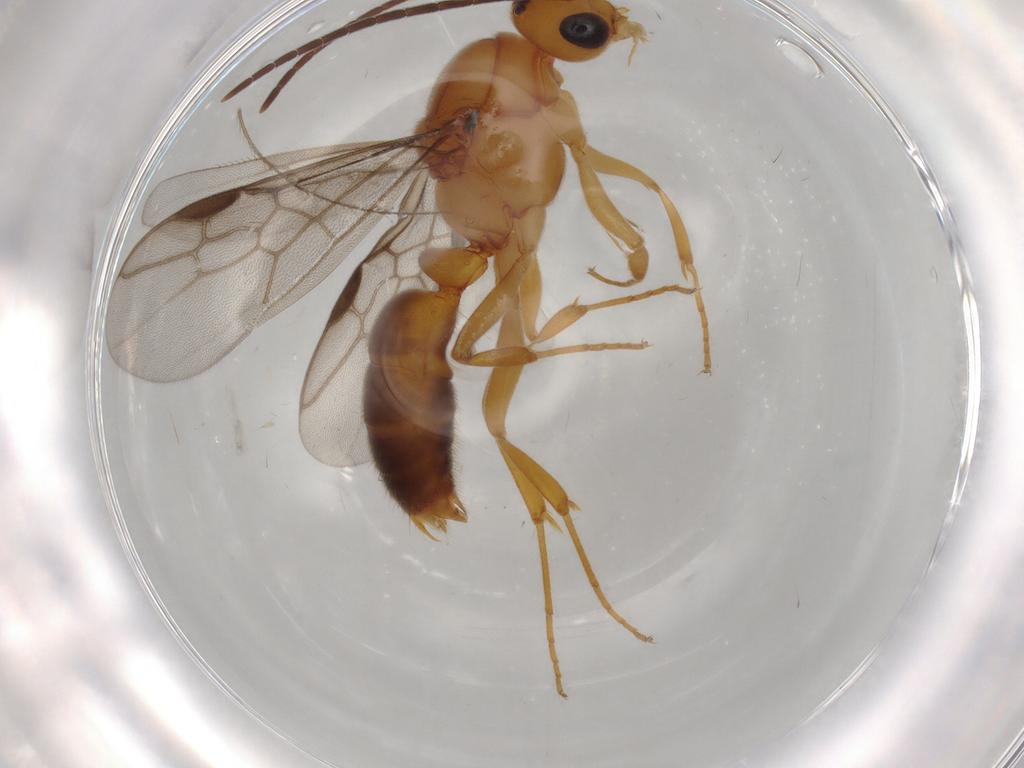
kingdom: Animalia
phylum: Arthropoda
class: Insecta
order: Hymenoptera
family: Formicidae
